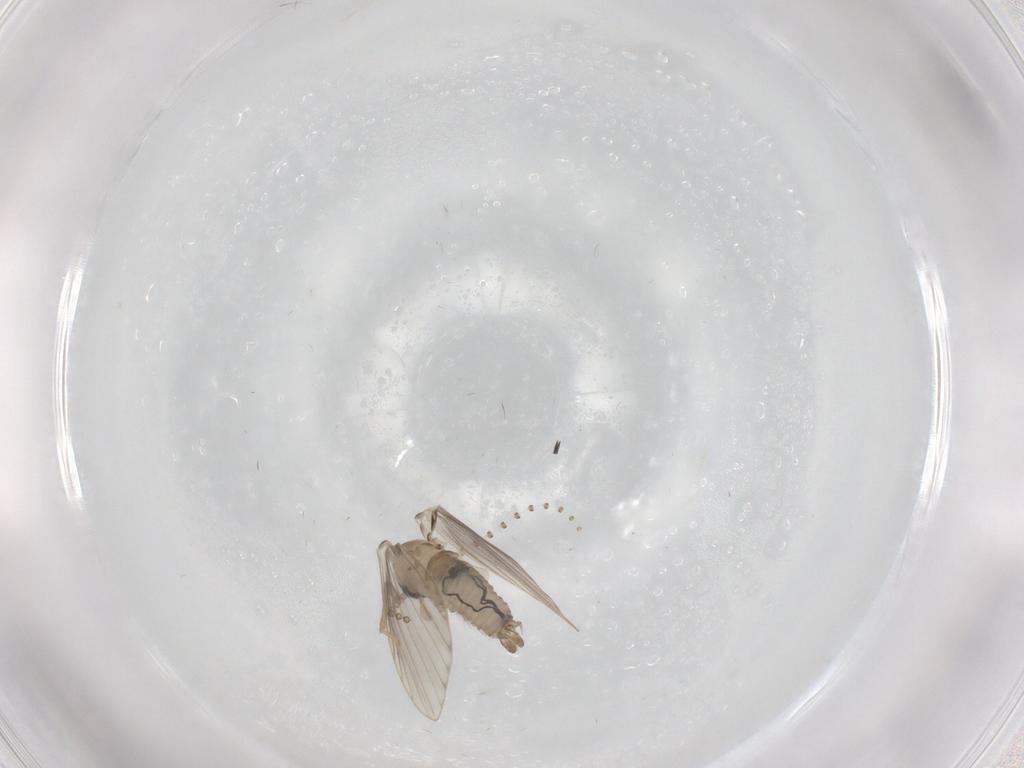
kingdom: Animalia
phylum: Arthropoda
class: Insecta
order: Diptera
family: Psychodidae
